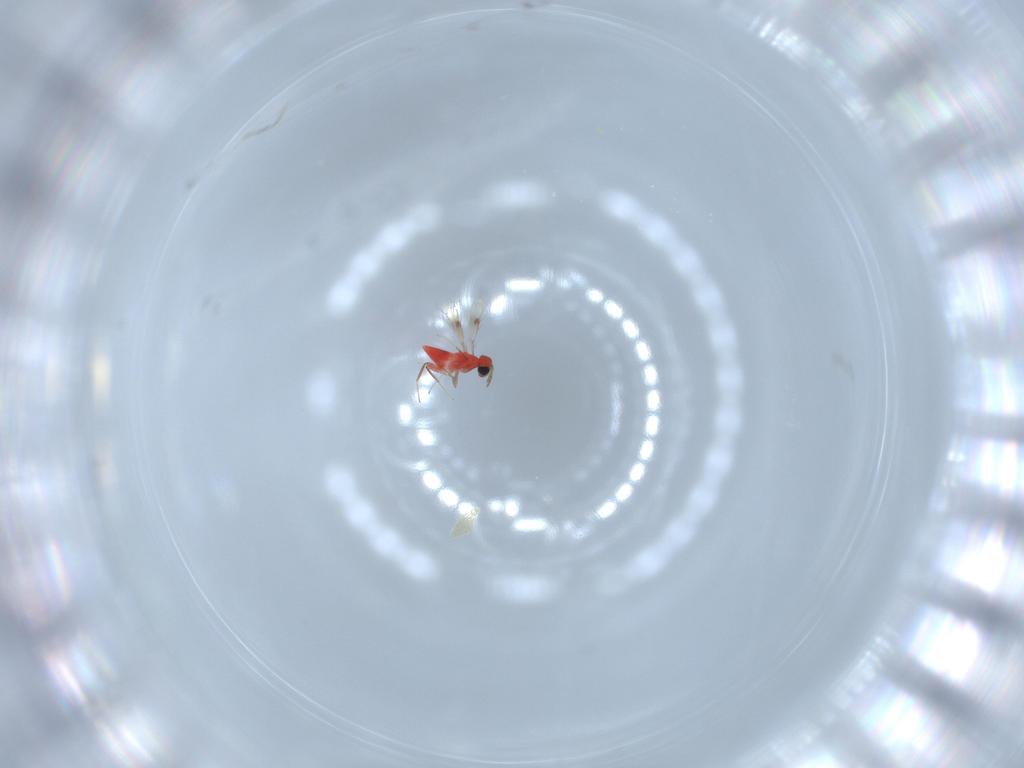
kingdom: Animalia
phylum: Arthropoda
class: Insecta
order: Hymenoptera
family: Trichogrammatidae
